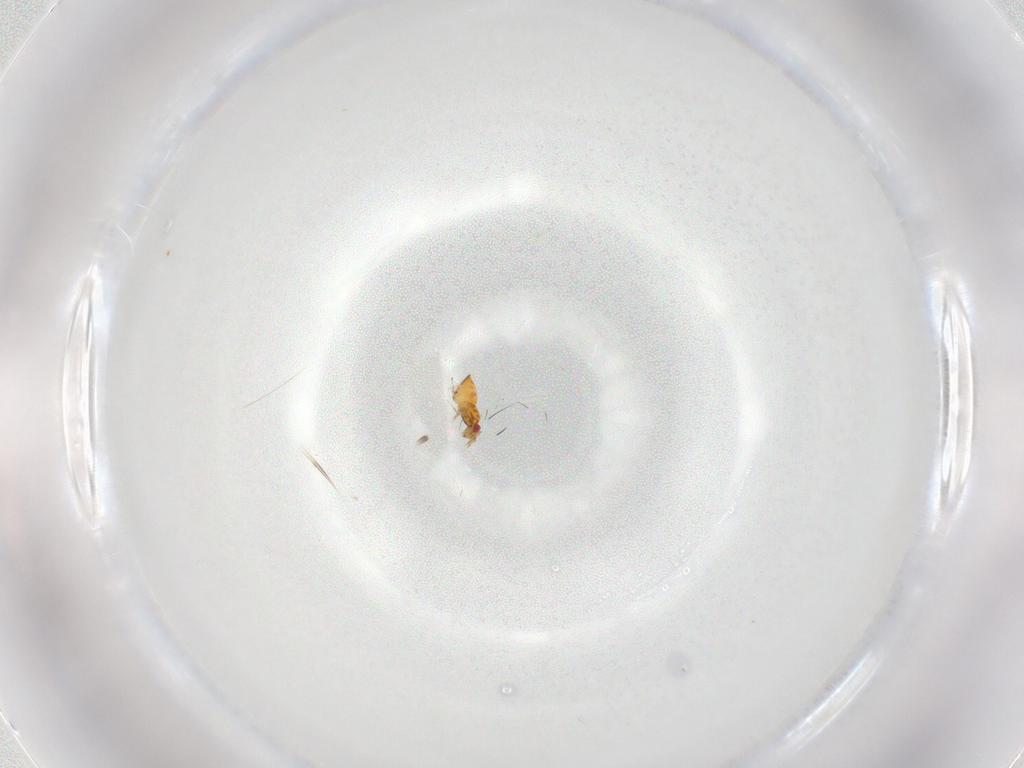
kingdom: Animalia
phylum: Arthropoda
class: Insecta
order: Hymenoptera
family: Trichogrammatidae
